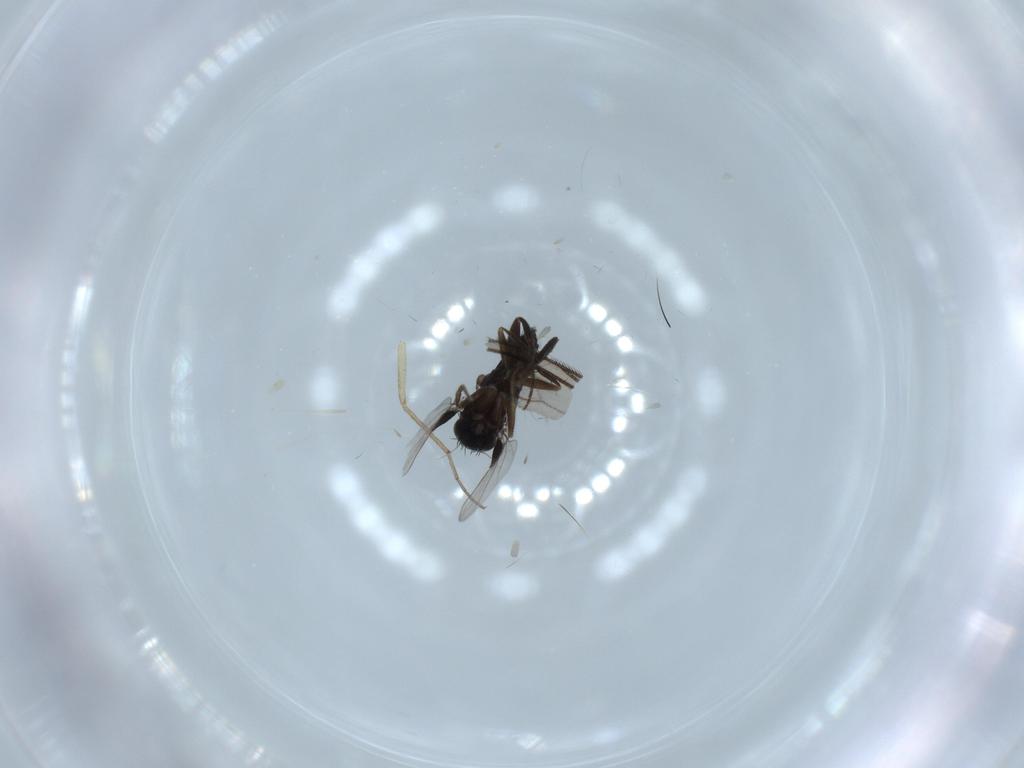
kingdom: Animalia
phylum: Arthropoda
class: Insecta
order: Diptera
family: Phoridae
